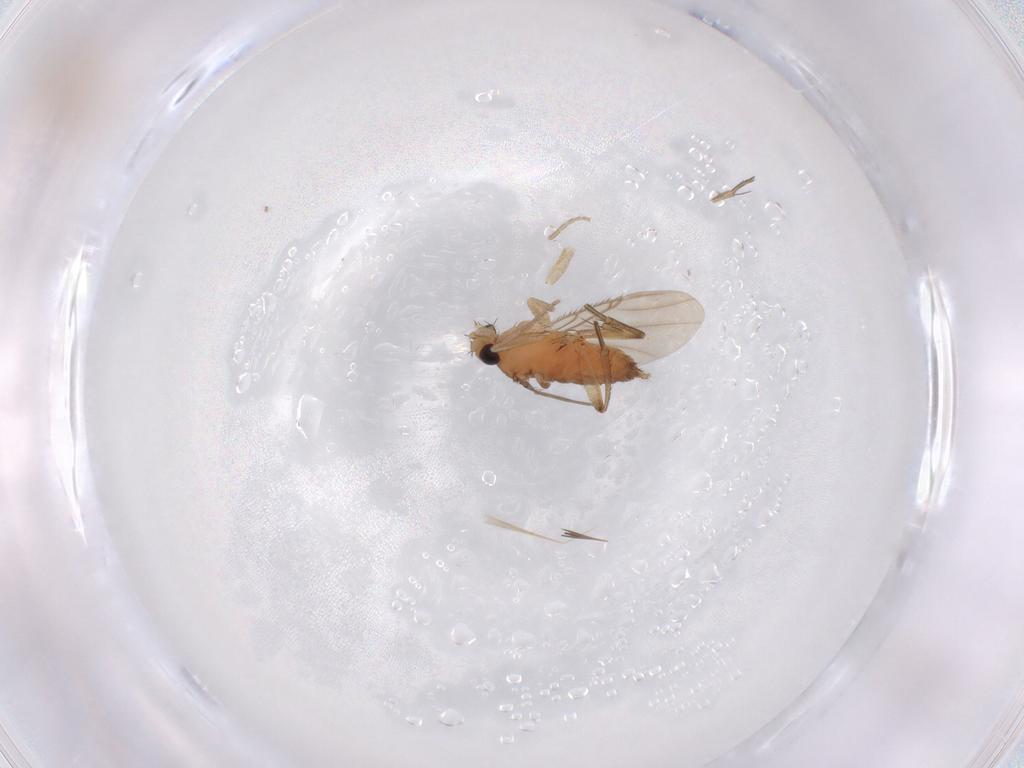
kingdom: Animalia
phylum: Arthropoda
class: Insecta
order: Diptera
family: Phoridae
